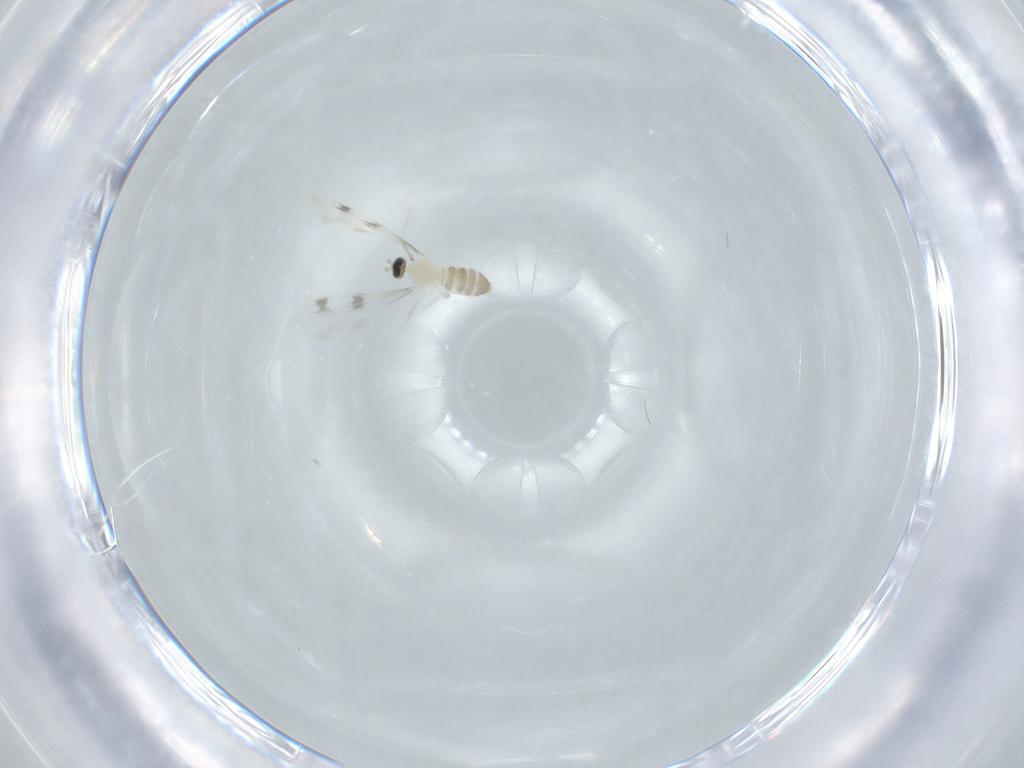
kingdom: Animalia
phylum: Arthropoda
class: Insecta
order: Diptera
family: Cecidomyiidae
